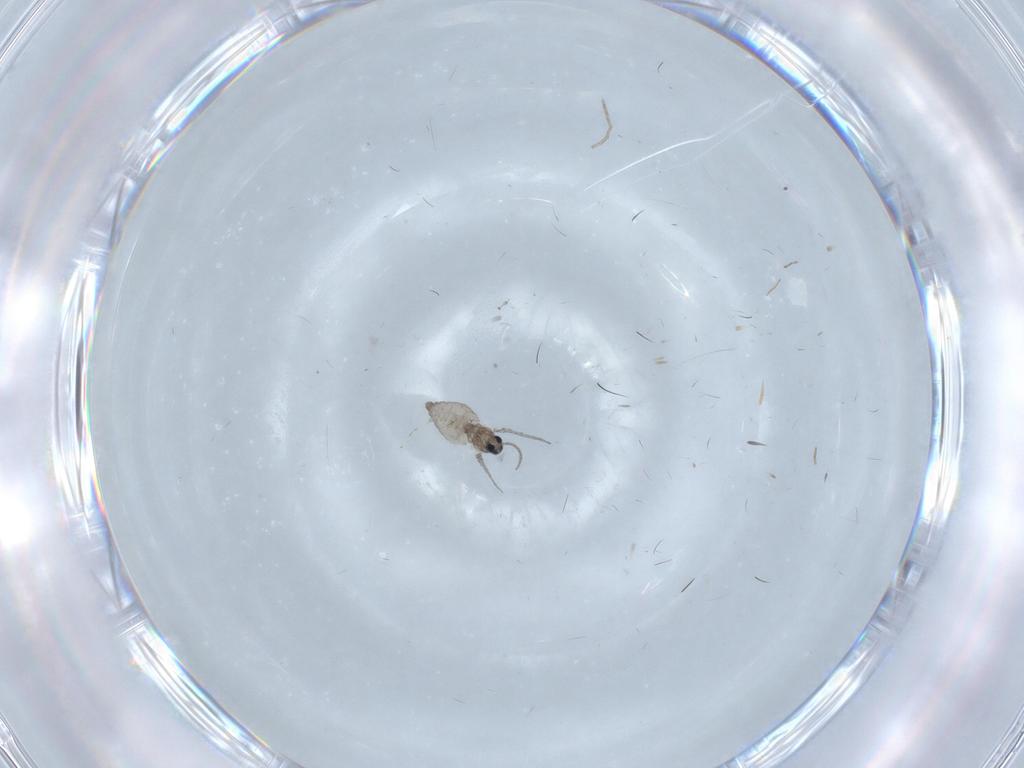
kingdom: Animalia
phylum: Arthropoda
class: Insecta
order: Diptera
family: Cecidomyiidae
